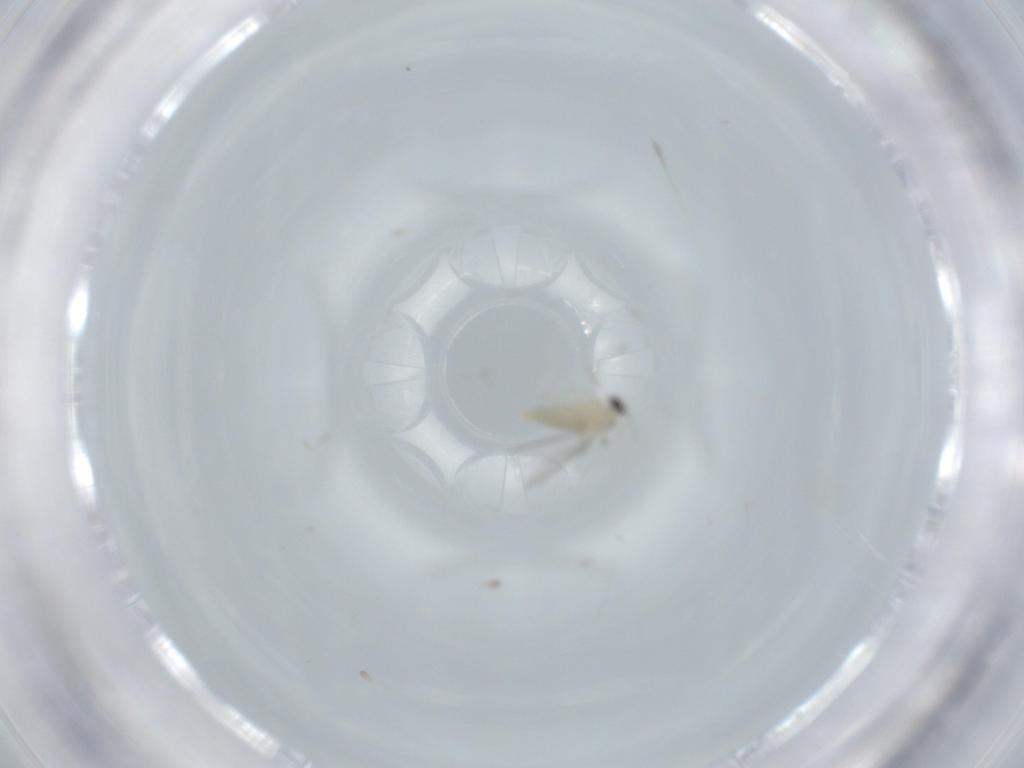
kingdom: Animalia
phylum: Arthropoda
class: Insecta
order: Diptera
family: Cecidomyiidae
